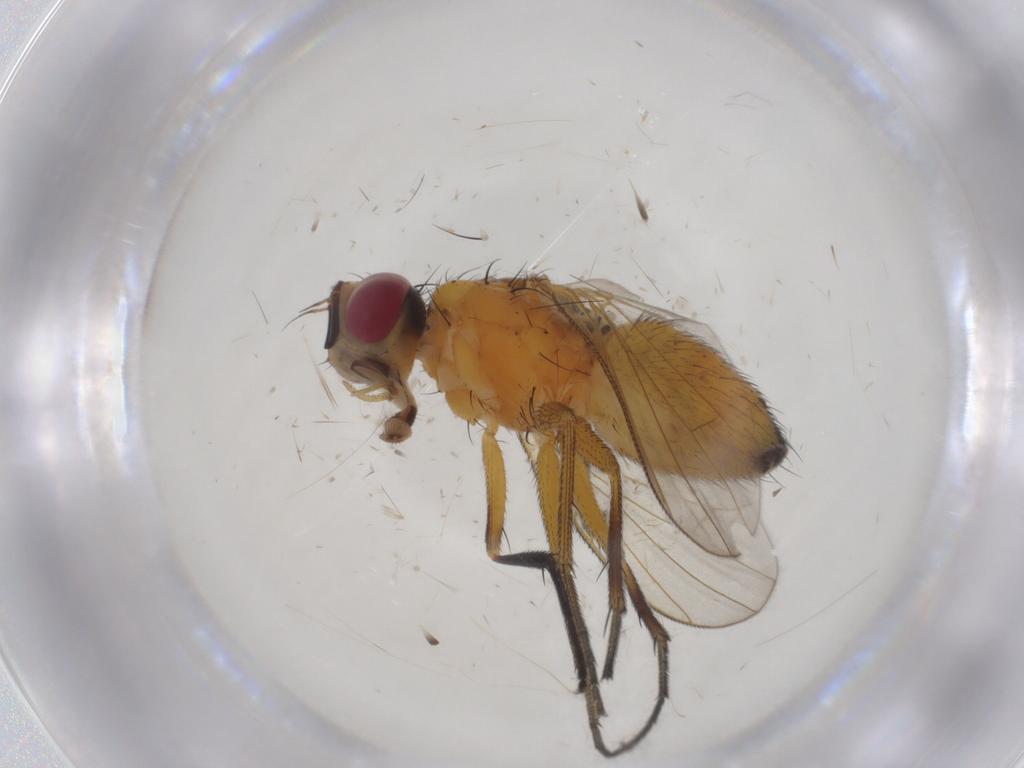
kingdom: Animalia
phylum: Arthropoda
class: Insecta
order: Diptera
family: Muscidae
